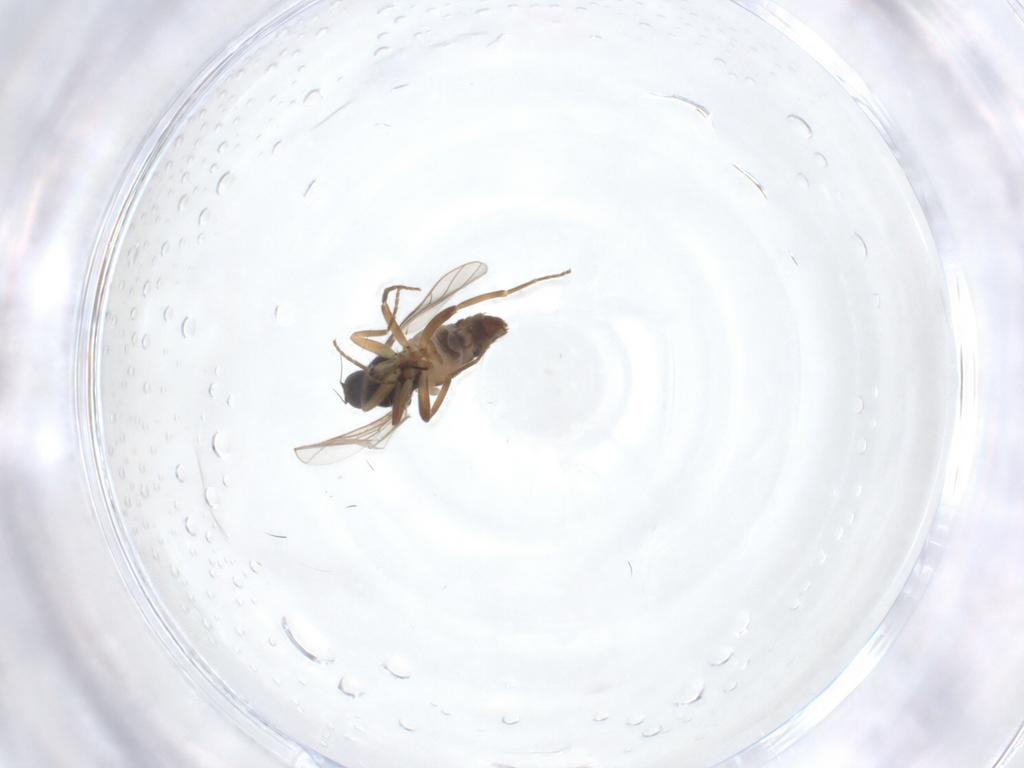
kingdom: Animalia
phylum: Arthropoda
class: Insecta
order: Diptera
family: Hybotidae
